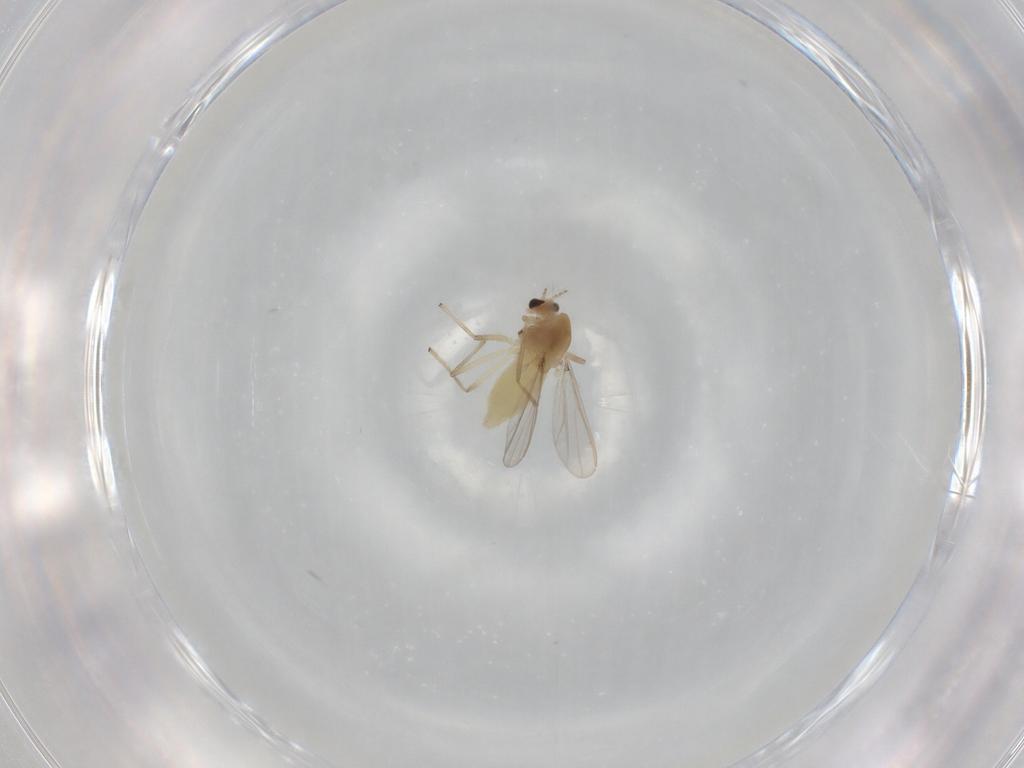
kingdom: Animalia
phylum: Arthropoda
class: Insecta
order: Diptera
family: Chironomidae
